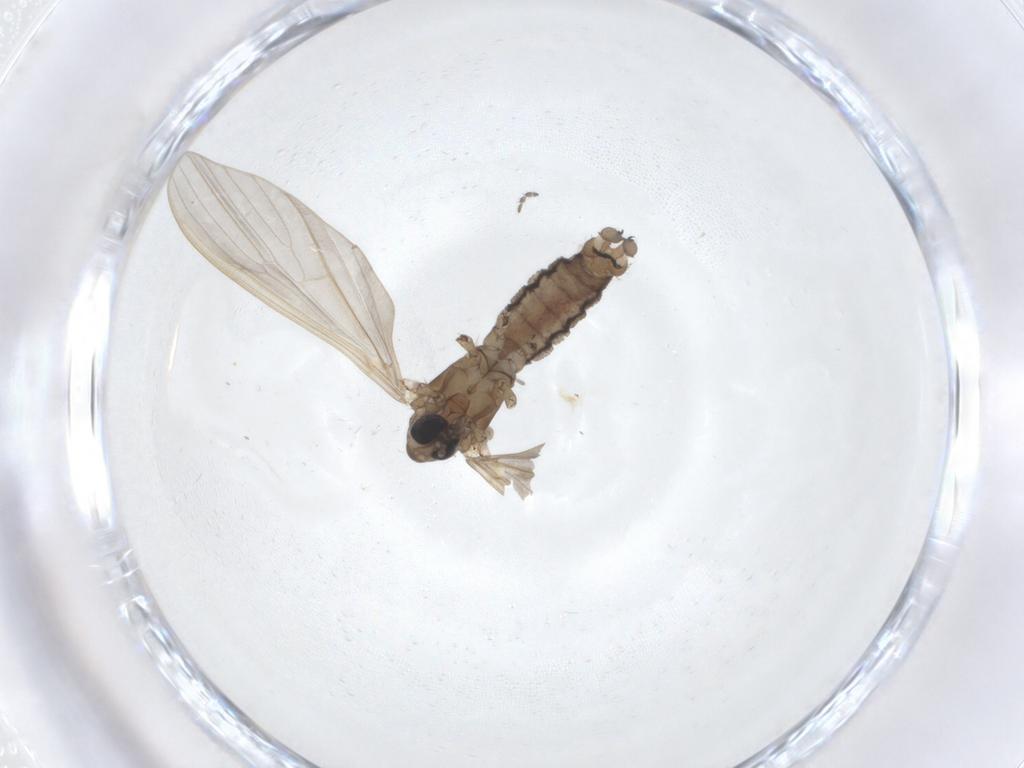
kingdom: Animalia
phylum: Arthropoda
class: Insecta
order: Diptera
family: Limoniidae
